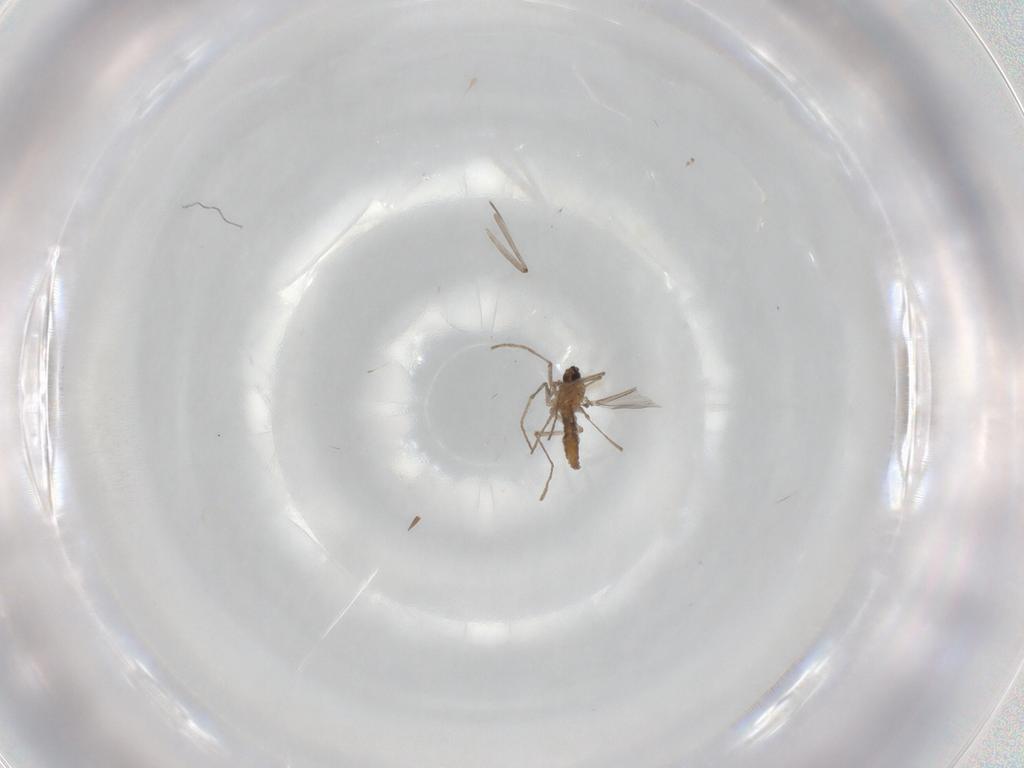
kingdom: Animalia
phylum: Arthropoda
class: Insecta
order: Diptera
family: Cecidomyiidae
